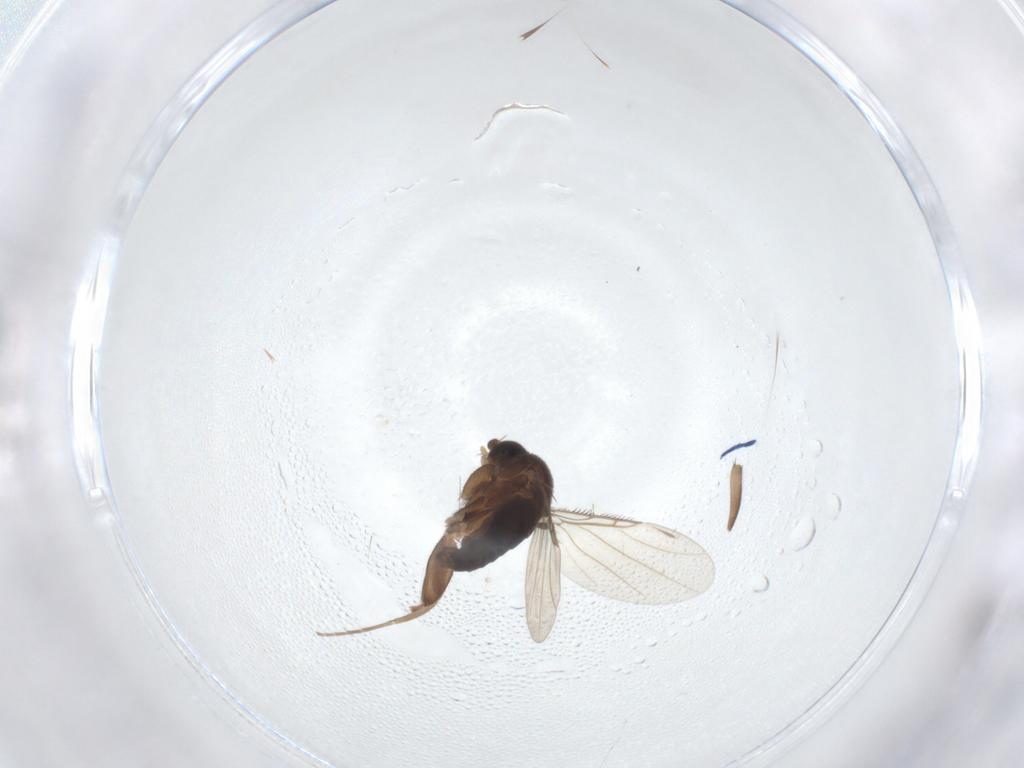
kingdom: Animalia
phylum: Arthropoda
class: Insecta
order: Diptera
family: Phoridae
